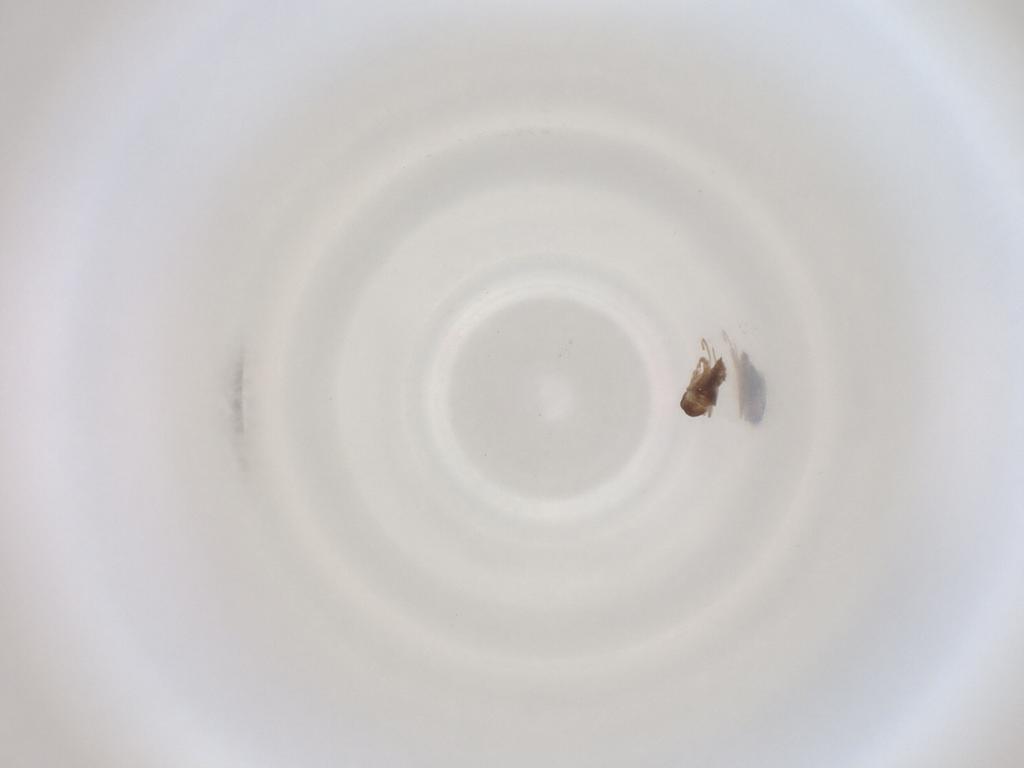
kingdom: Animalia
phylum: Arthropoda
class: Insecta
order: Diptera
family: Cecidomyiidae
